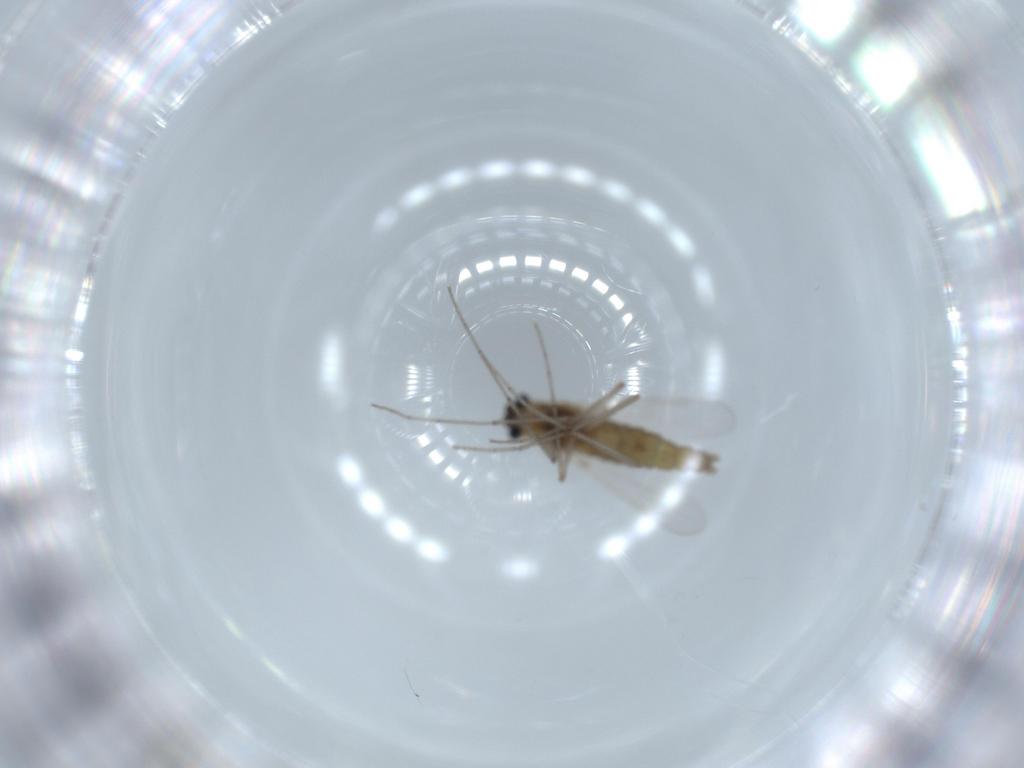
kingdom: Animalia
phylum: Arthropoda
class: Insecta
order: Diptera
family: Chironomidae
